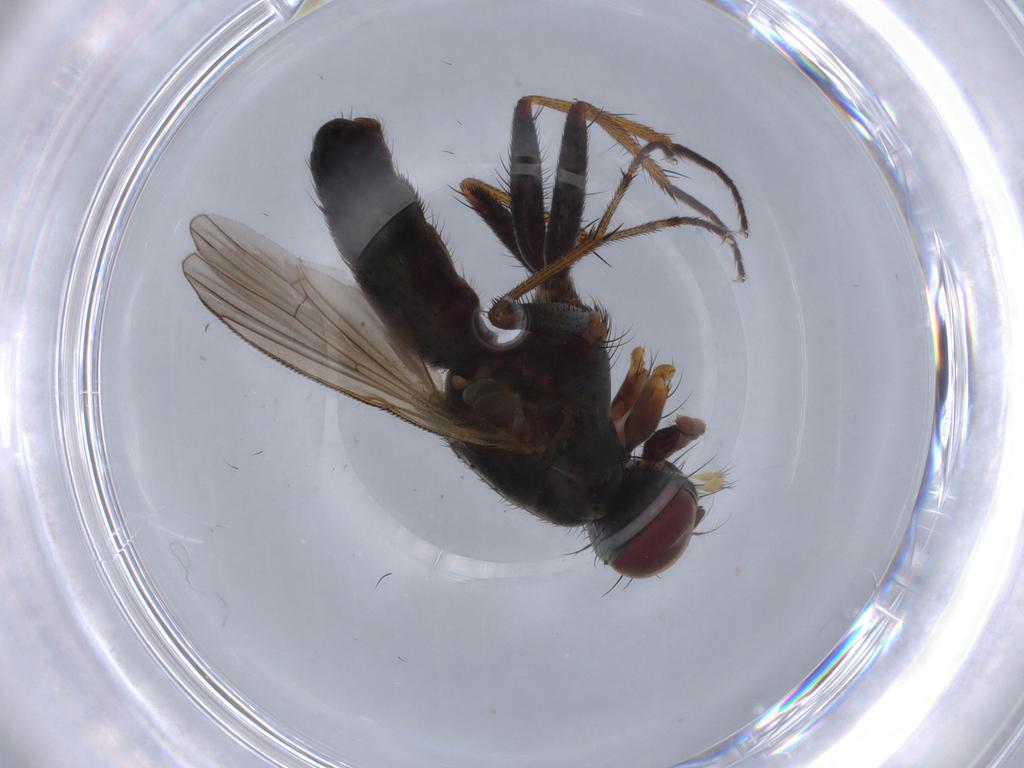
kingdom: Animalia
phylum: Arthropoda
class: Insecta
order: Diptera
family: Muscidae
